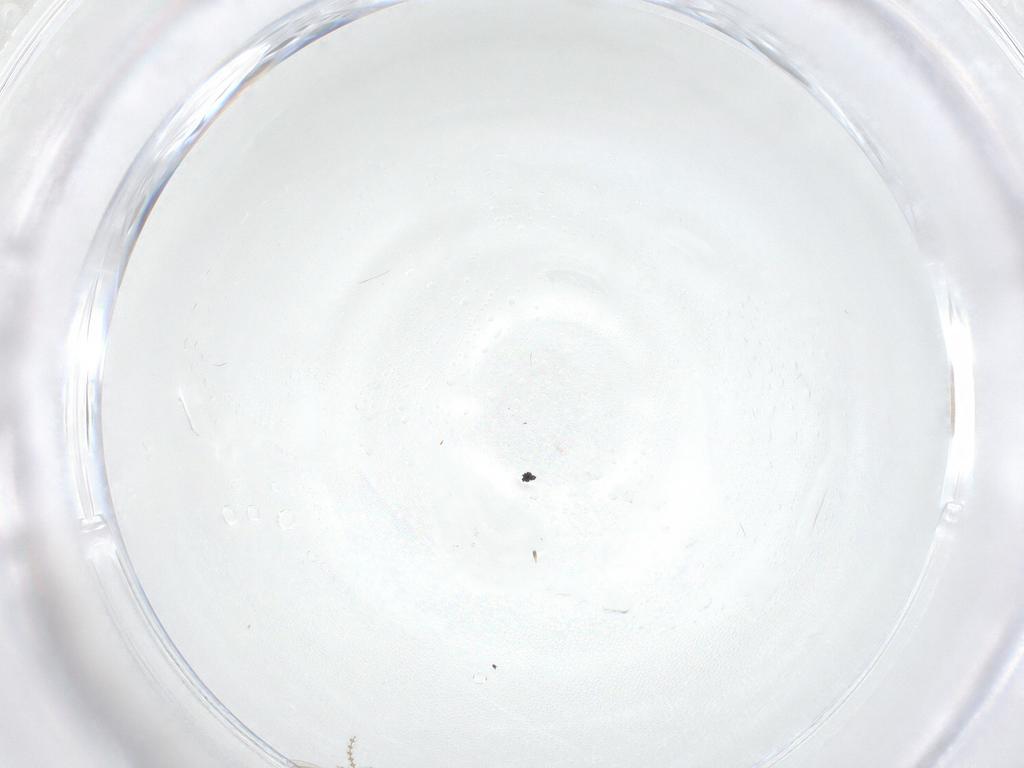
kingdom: Animalia
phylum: Arthropoda
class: Insecta
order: Diptera
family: Cecidomyiidae
